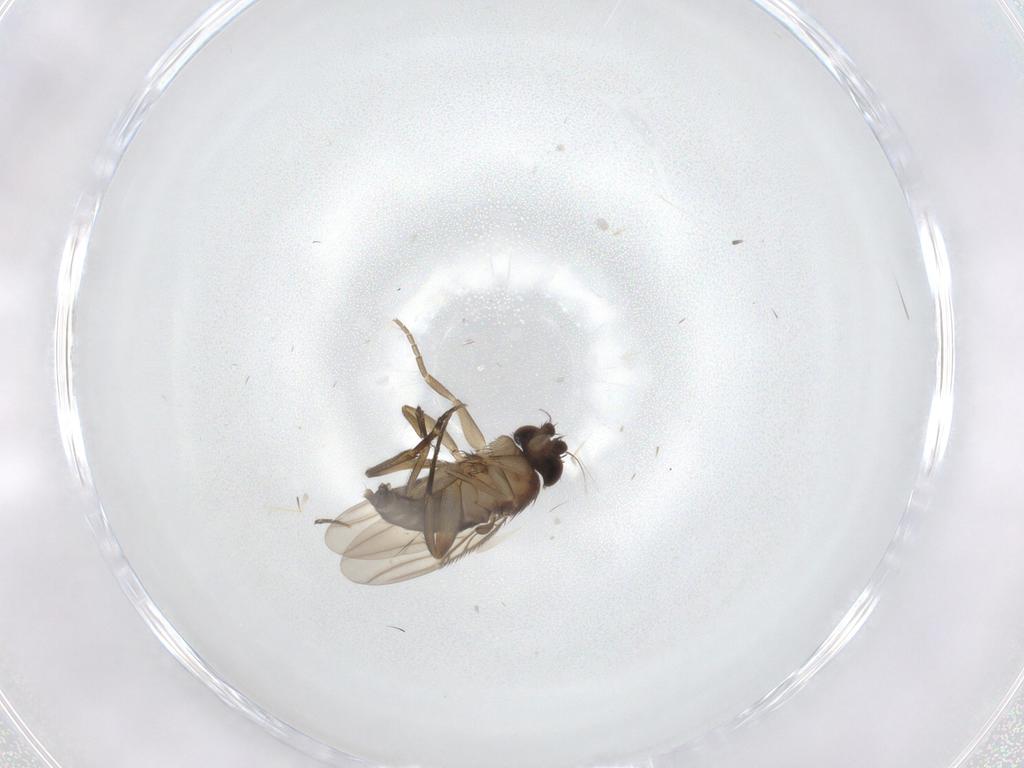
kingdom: Animalia
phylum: Arthropoda
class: Insecta
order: Diptera
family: Phoridae
